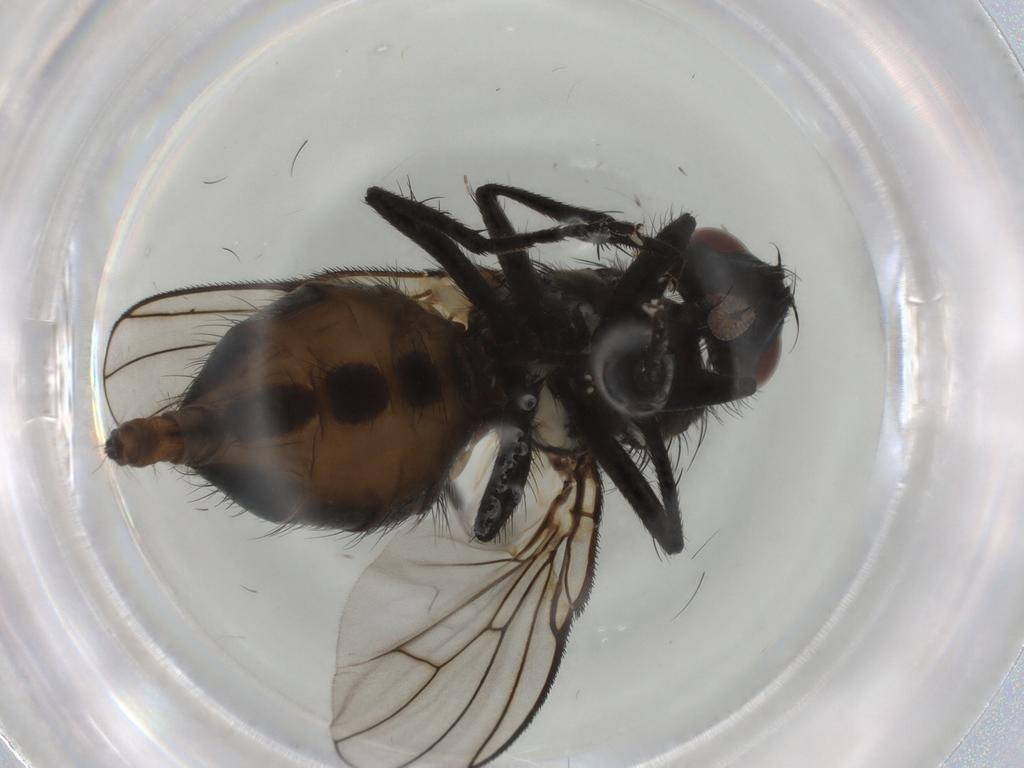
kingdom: Animalia
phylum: Arthropoda
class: Insecta
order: Diptera
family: Muscidae
